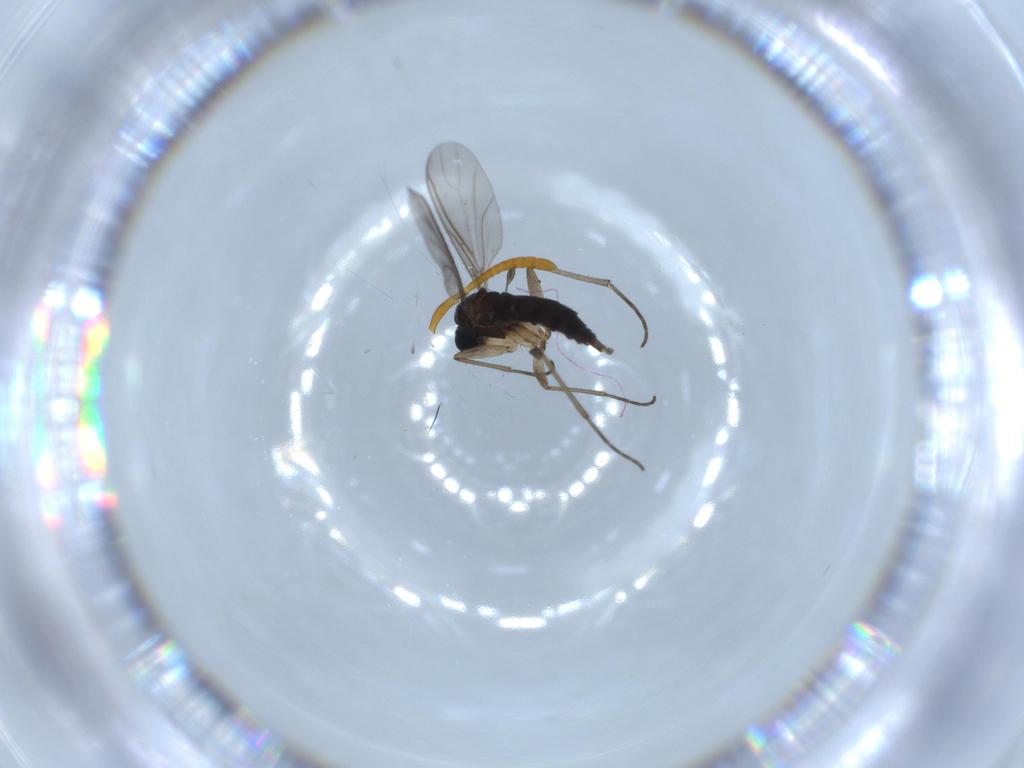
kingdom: Animalia
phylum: Arthropoda
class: Insecta
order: Diptera
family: Sciaridae
